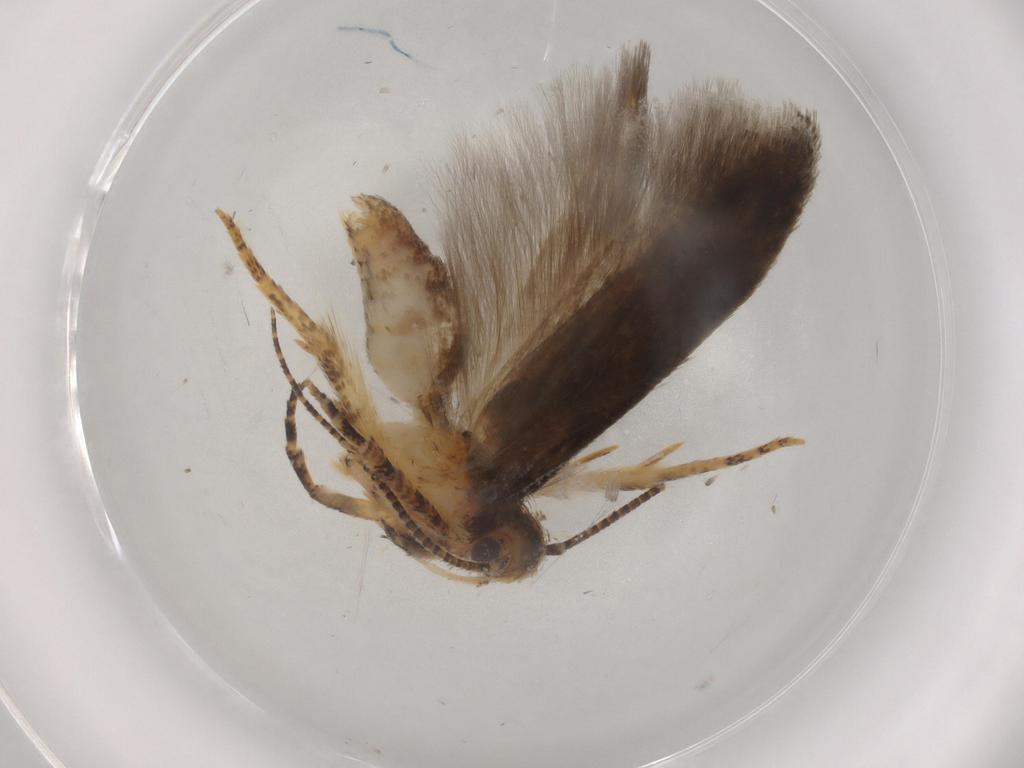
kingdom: Animalia
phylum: Arthropoda
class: Insecta
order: Lepidoptera
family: Gelechiidae
